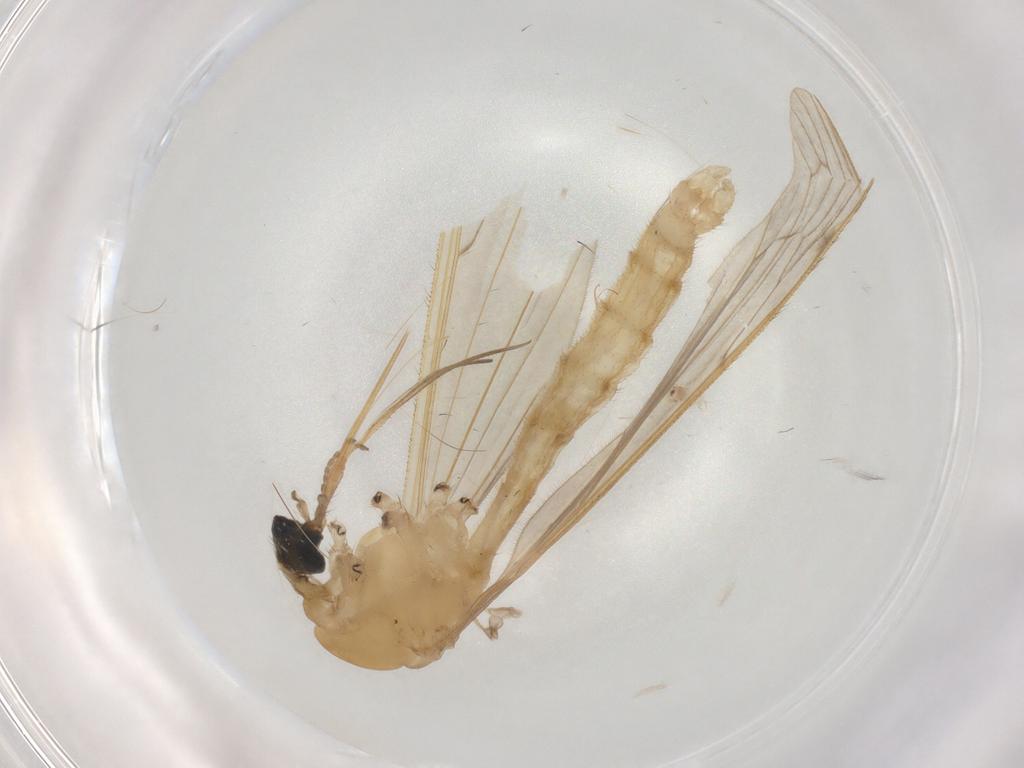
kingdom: Animalia
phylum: Arthropoda
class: Insecta
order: Diptera
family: Limoniidae
